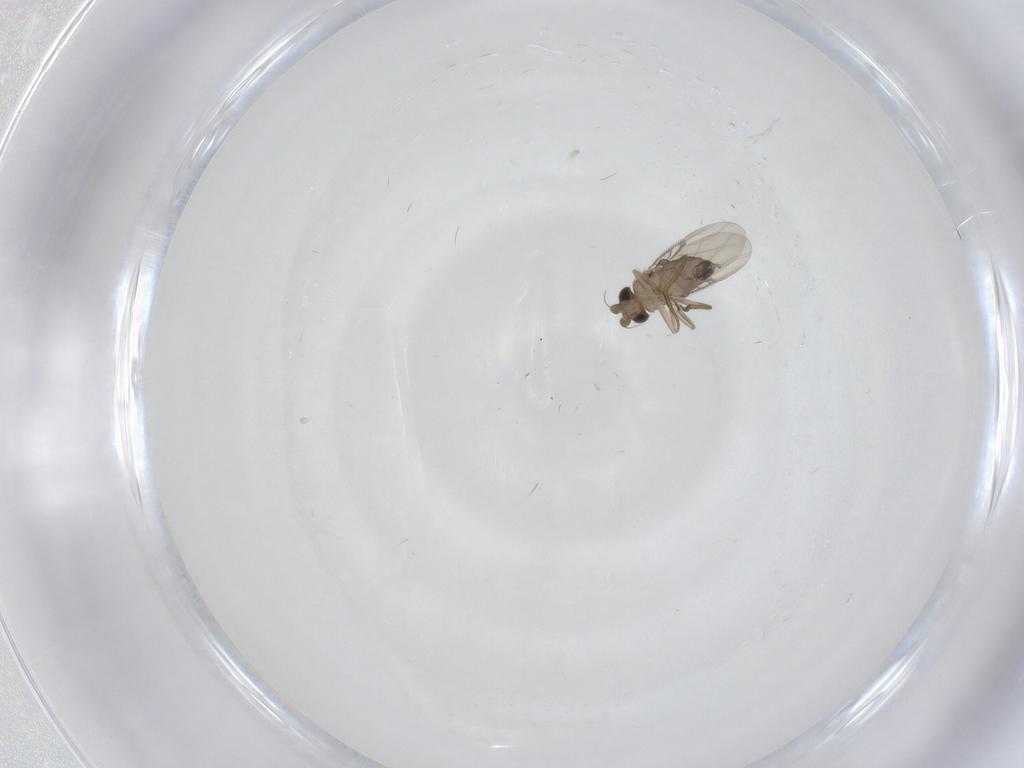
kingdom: Animalia
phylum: Arthropoda
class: Insecta
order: Diptera
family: Phoridae
